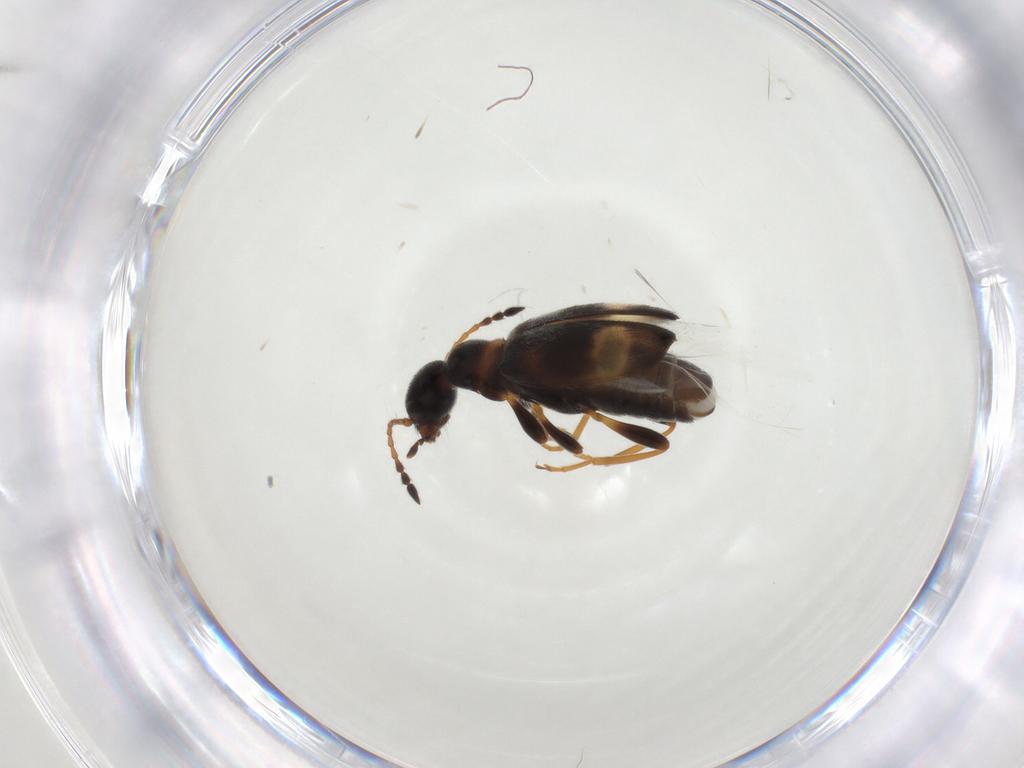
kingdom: Animalia
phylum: Arthropoda
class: Insecta
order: Coleoptera
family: Anthicidae
